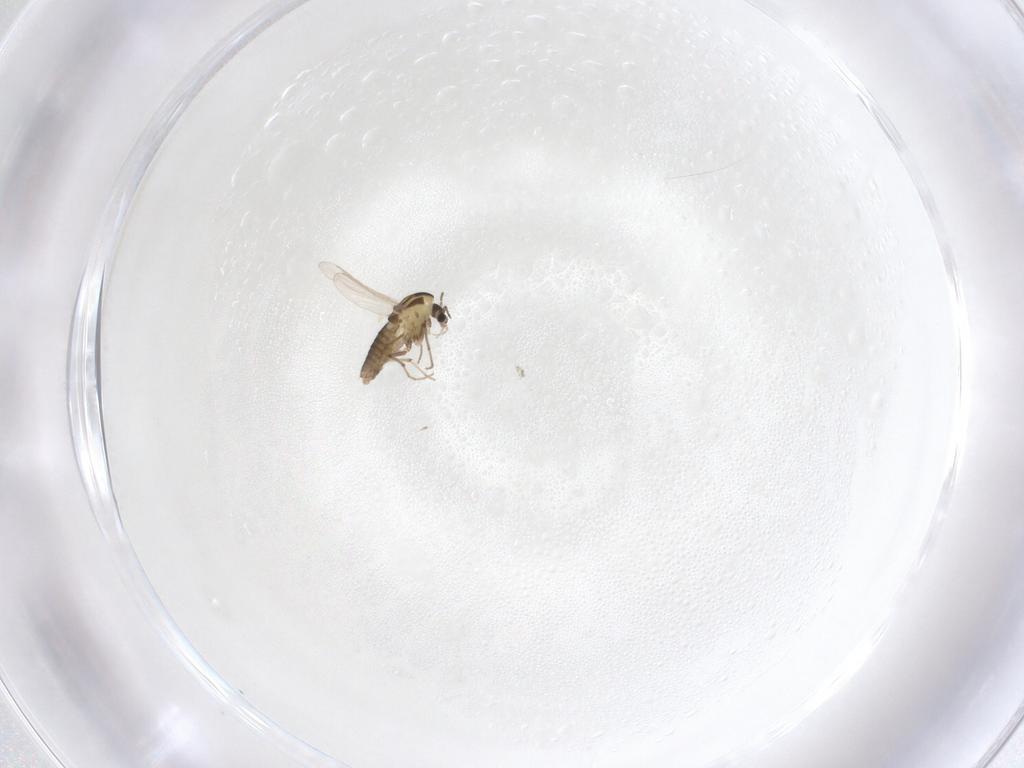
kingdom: Animalia
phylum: Arthropoda
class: Insecta
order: Diptera
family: Chironomidae
